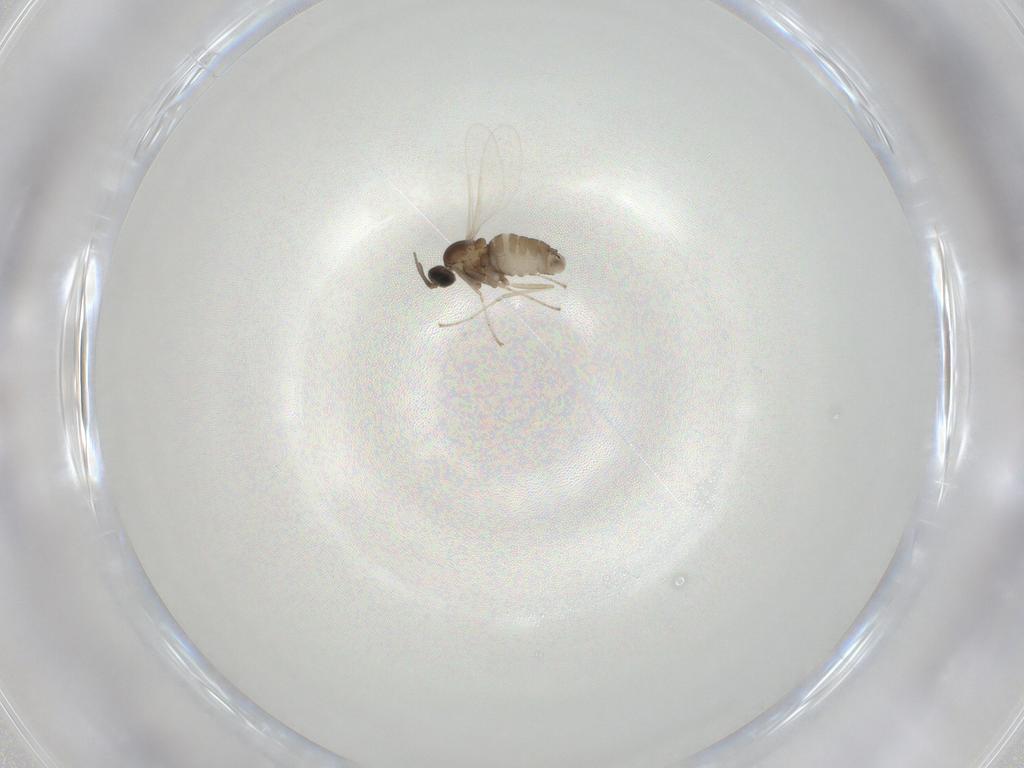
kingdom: Animalia
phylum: Arthropoda
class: Insecta
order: Diptera
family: Cecidomyiidae
